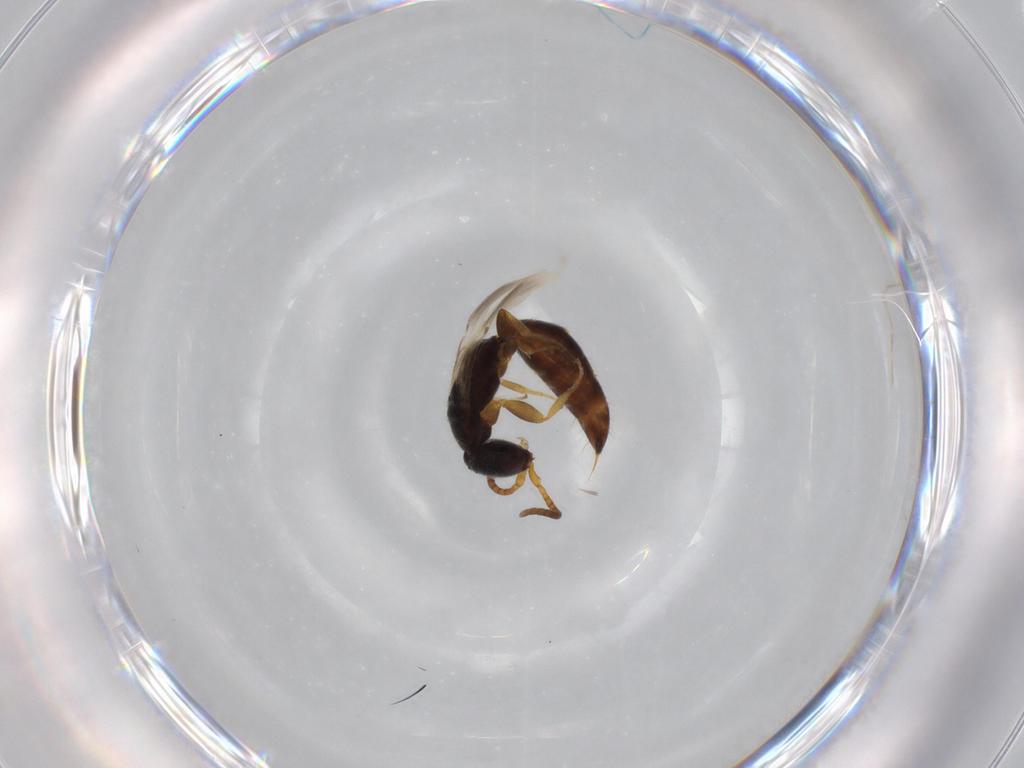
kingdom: Animalia
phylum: Arthropoda
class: Insecta
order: Hymenoptera
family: Bethylidae
